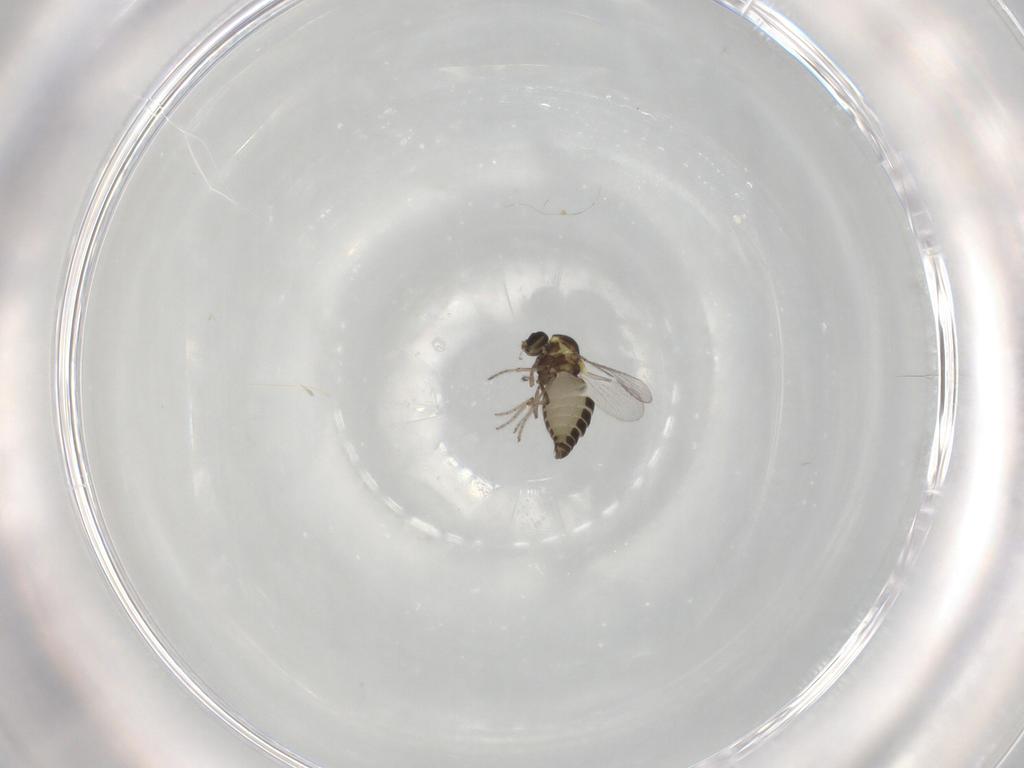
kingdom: Animalia
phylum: Arthropoda
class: Insecta
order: Diptera
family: Ceratopogonidae
